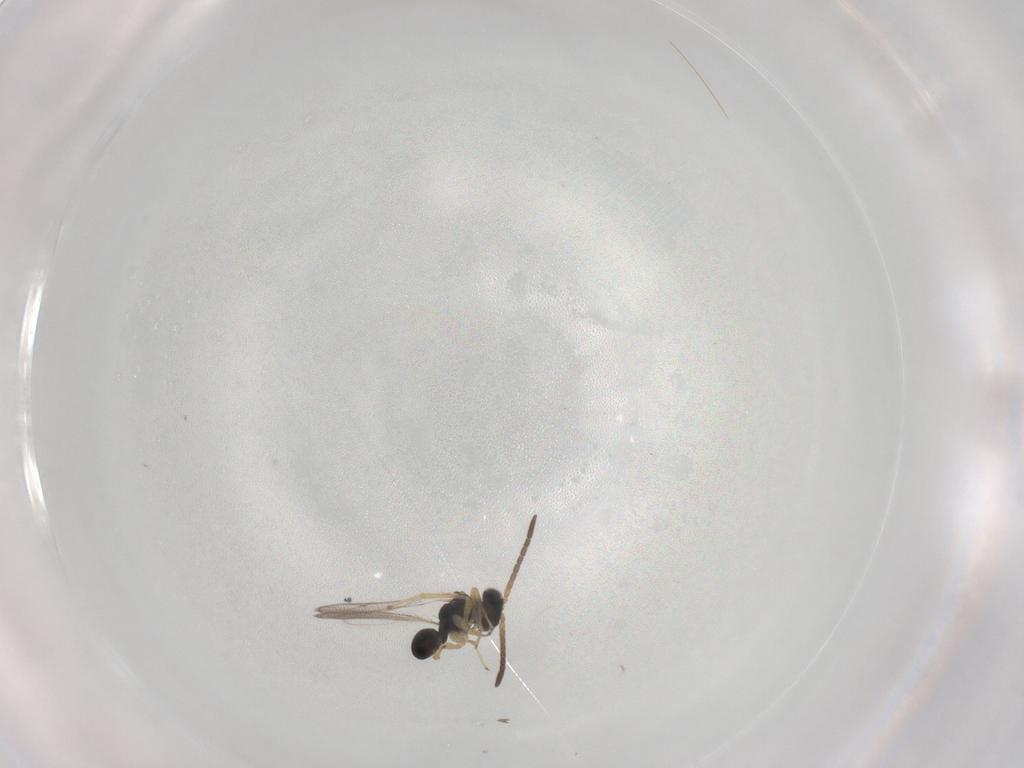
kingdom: Animalia
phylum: Arthropoda
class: Insecta
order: Hymenoptera
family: Diparidae
